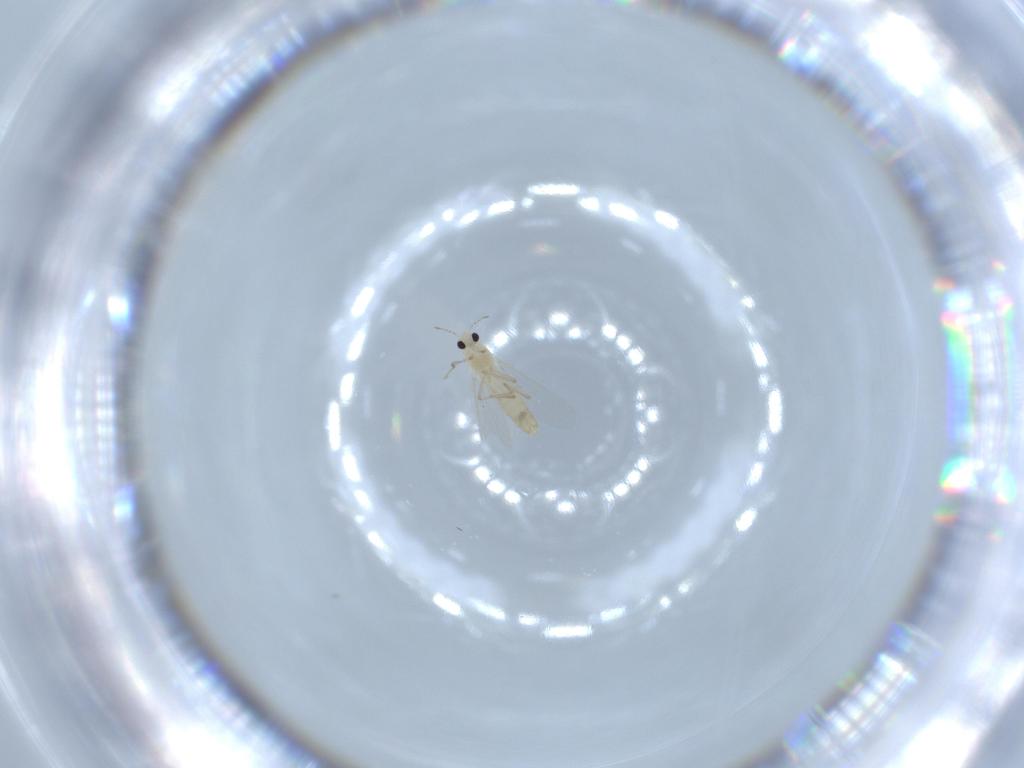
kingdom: Animalia
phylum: Arthropoda
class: Insecta
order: Diptera
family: Chironomidae
